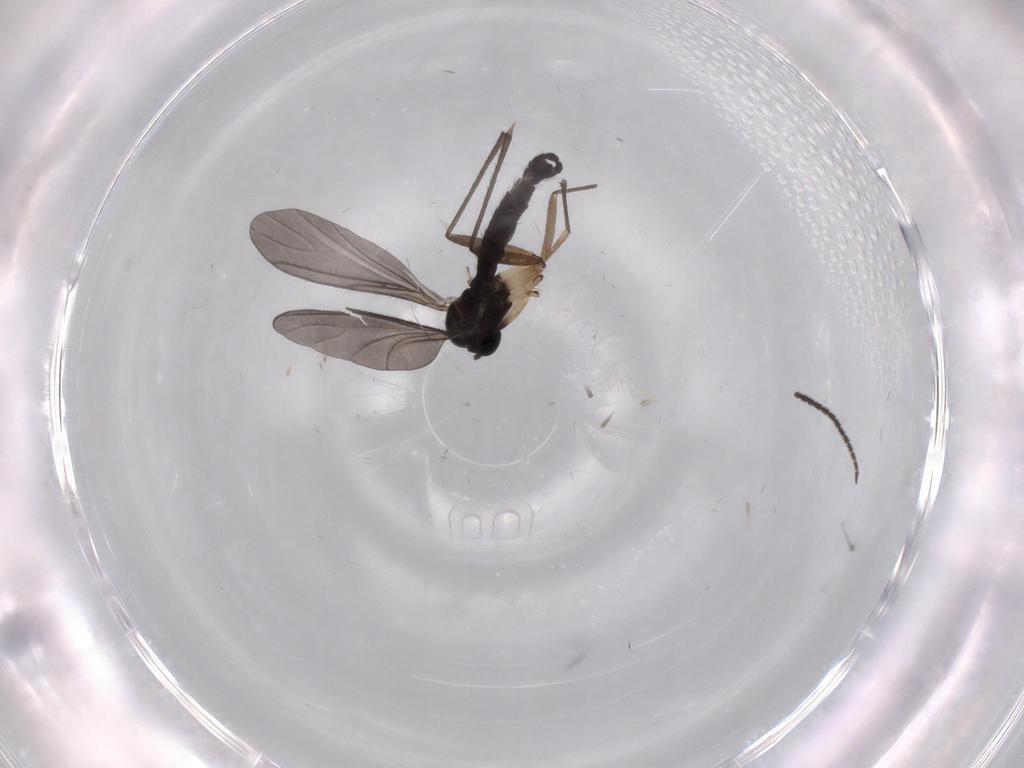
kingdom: Animalia
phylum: Arthropoda
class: Insecta
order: Diptera
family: Sciaridae
